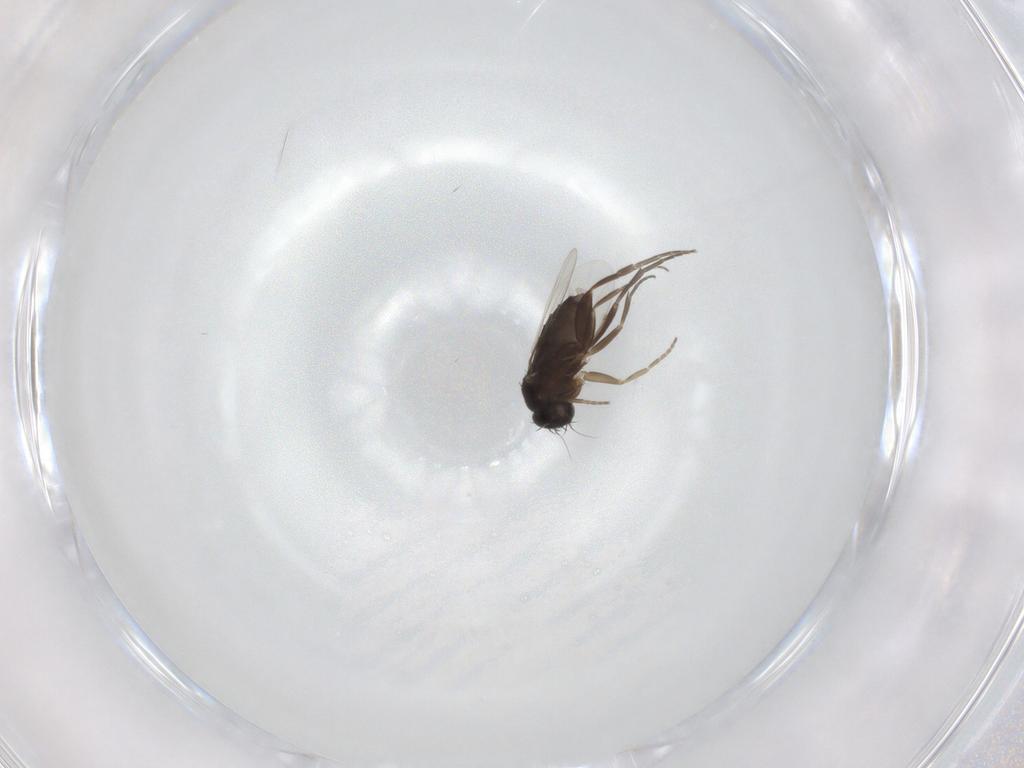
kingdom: Animalia
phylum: Arthropoda
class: Insecta
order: Diptera
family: Phoridae
